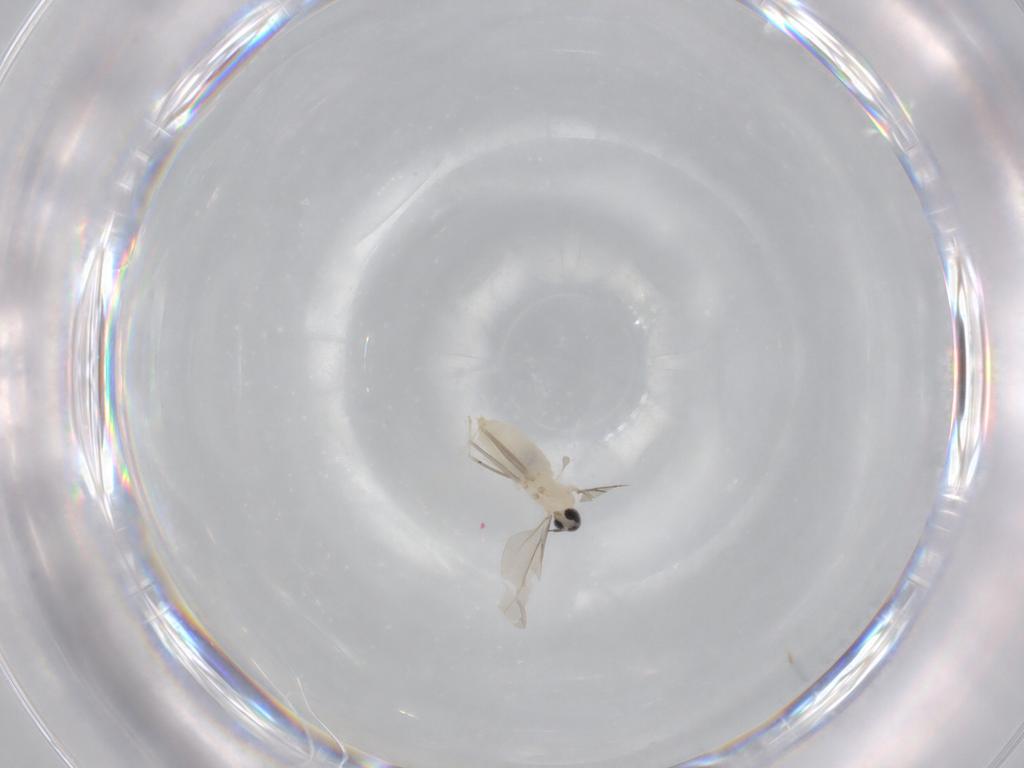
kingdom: Animalia
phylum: Arthropoda
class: Insecta
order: Diptera
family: Cecidomyiidae
